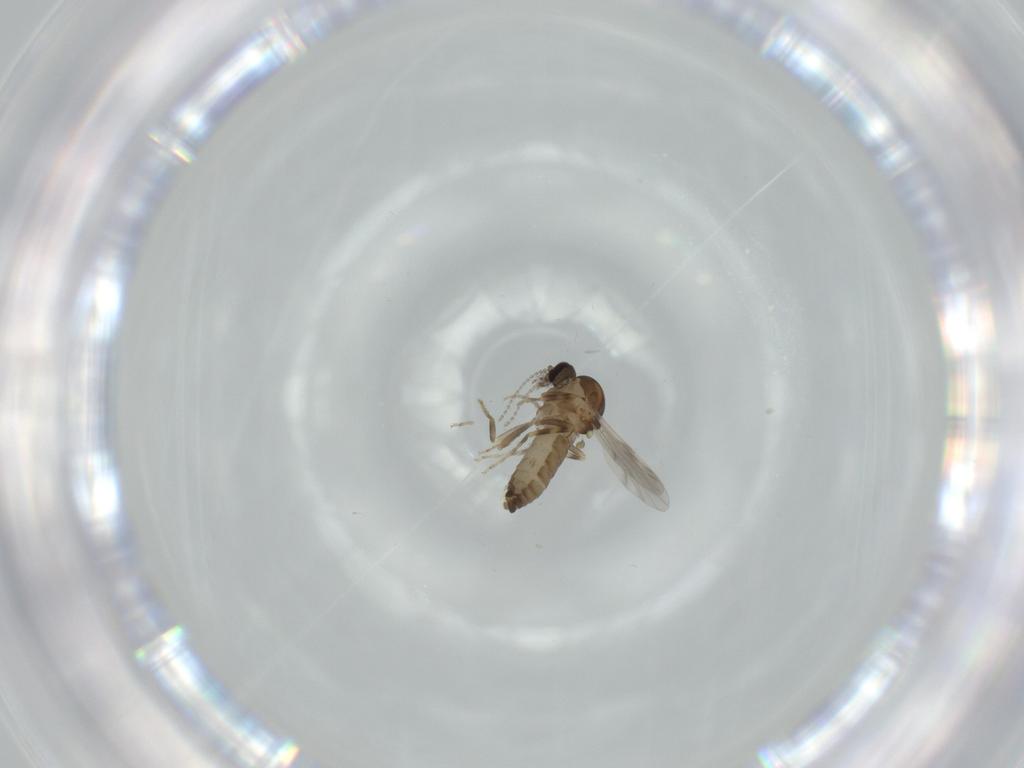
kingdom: Animalia
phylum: Arthropoda
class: Insecta
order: Diptera
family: Ceratopogonidae
